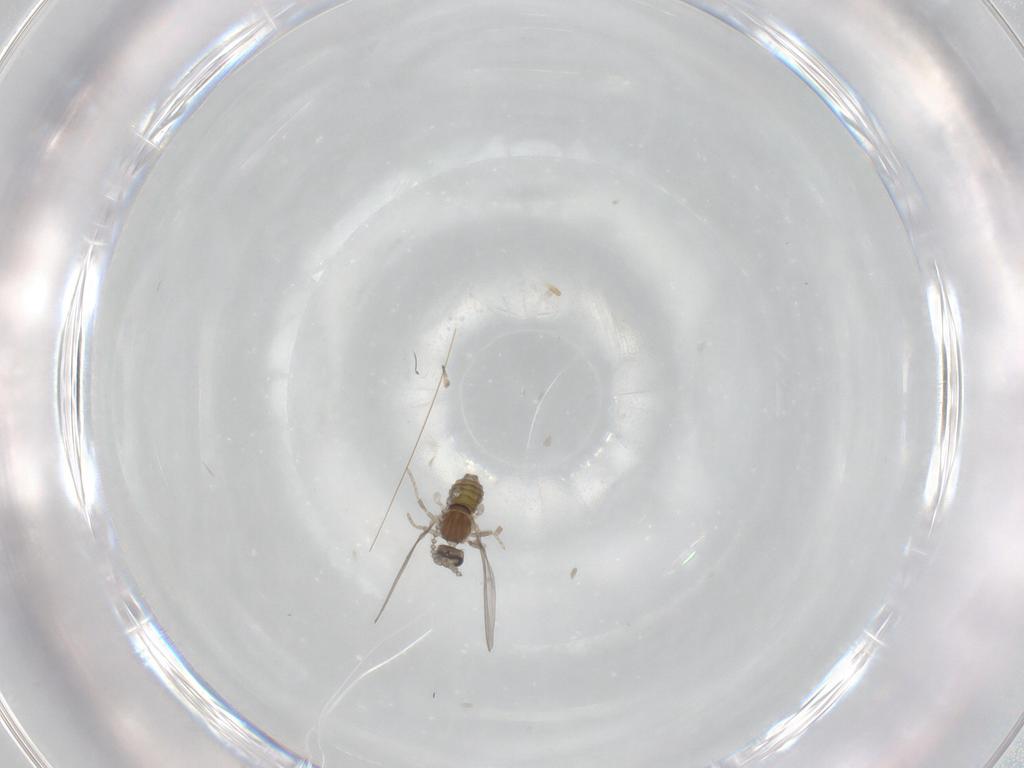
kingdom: Animalia
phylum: Arthropoda
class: Insecta
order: Diptera
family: Cecidomyiidae
